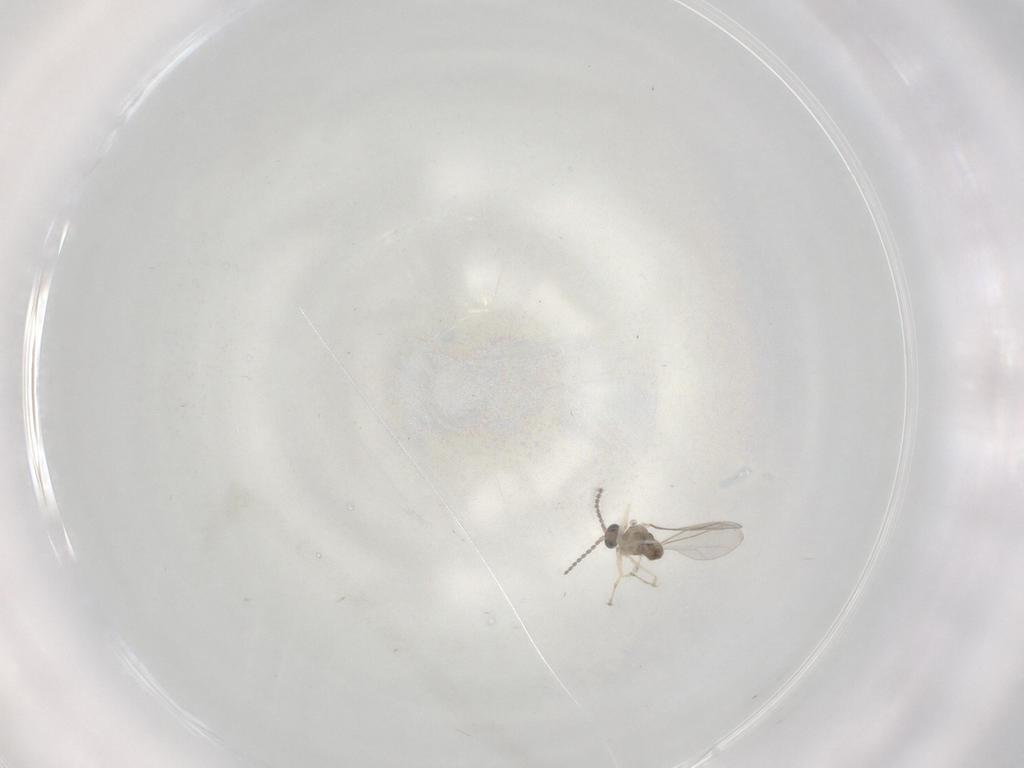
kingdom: Animalia
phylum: Arthropoda
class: Insecta
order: Diptera
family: Cecidomyiidae
